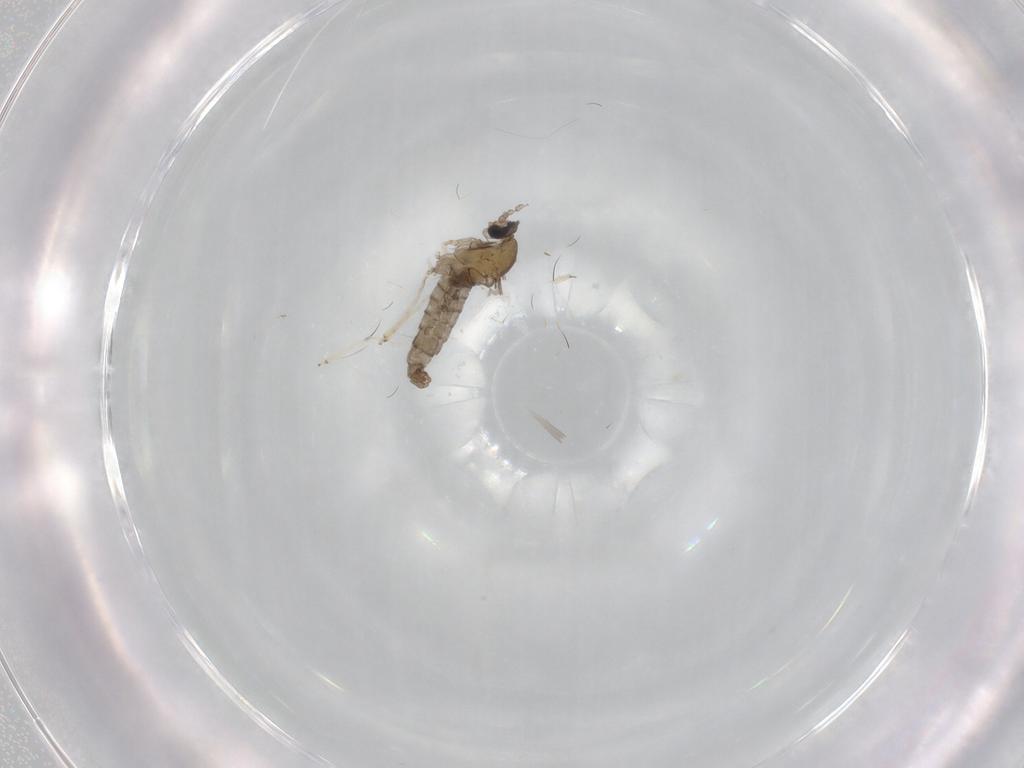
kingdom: Animalia
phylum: Arthropoda
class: Insecta
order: Diptera
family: Cecidomyiidae
